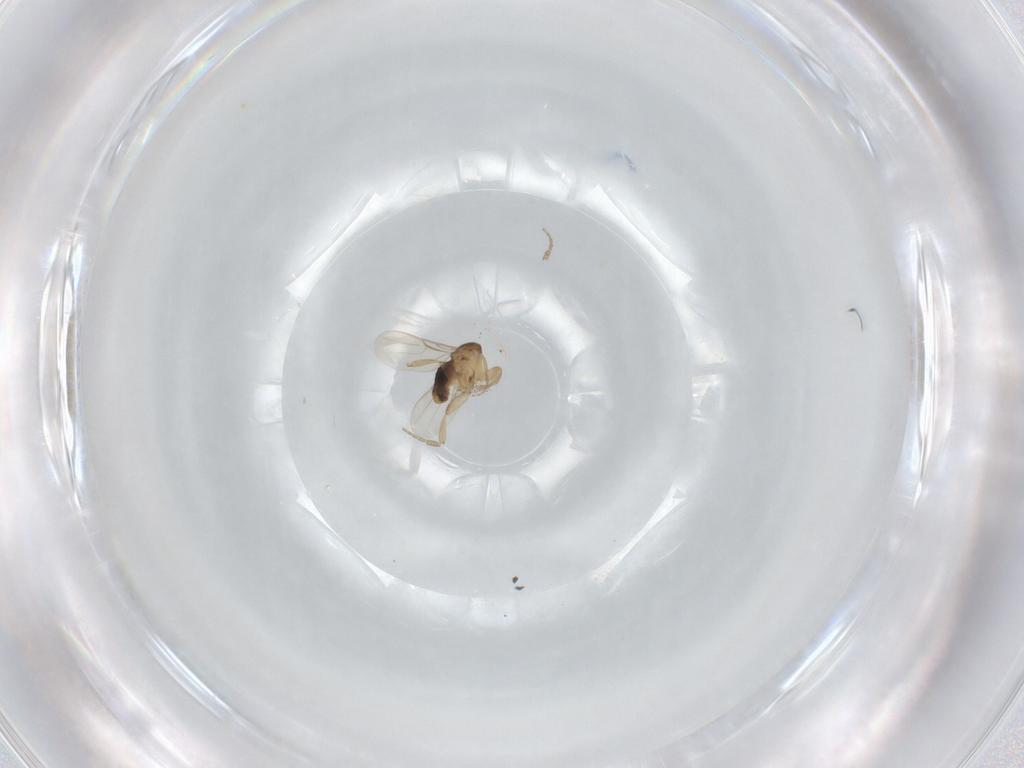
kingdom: Animalia
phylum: Arthropoda
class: Insecta
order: Diptera
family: Phoridae
